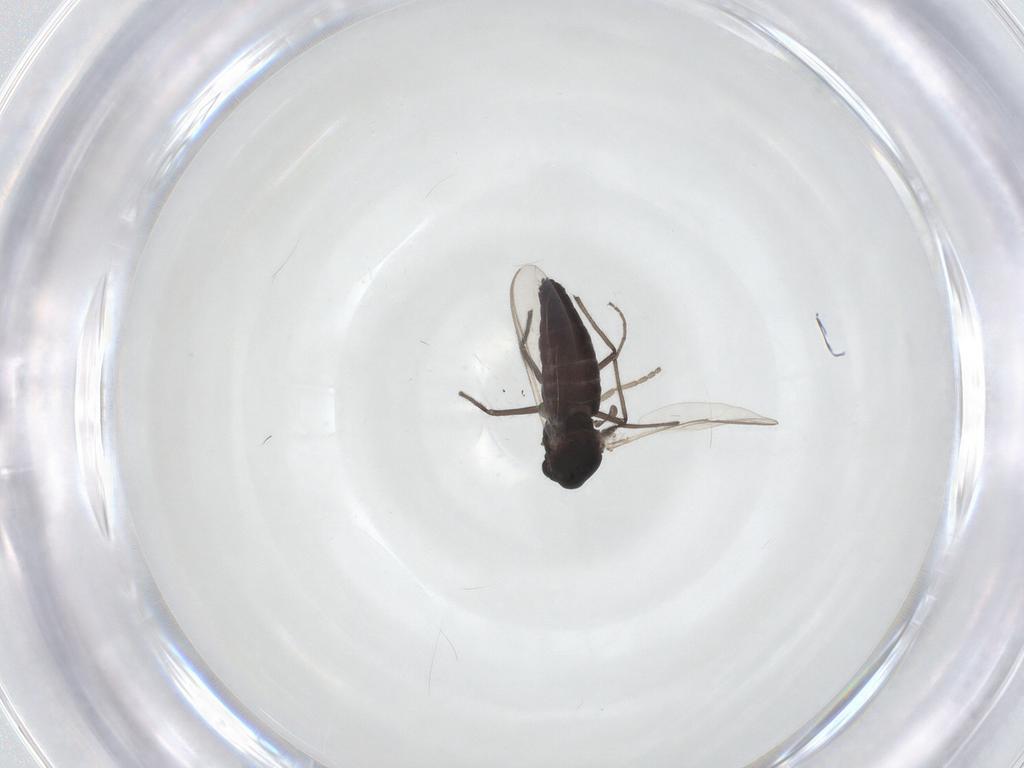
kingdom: Animalia
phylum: Arthropoda
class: Insecta
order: Diptera
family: Chironomidae
